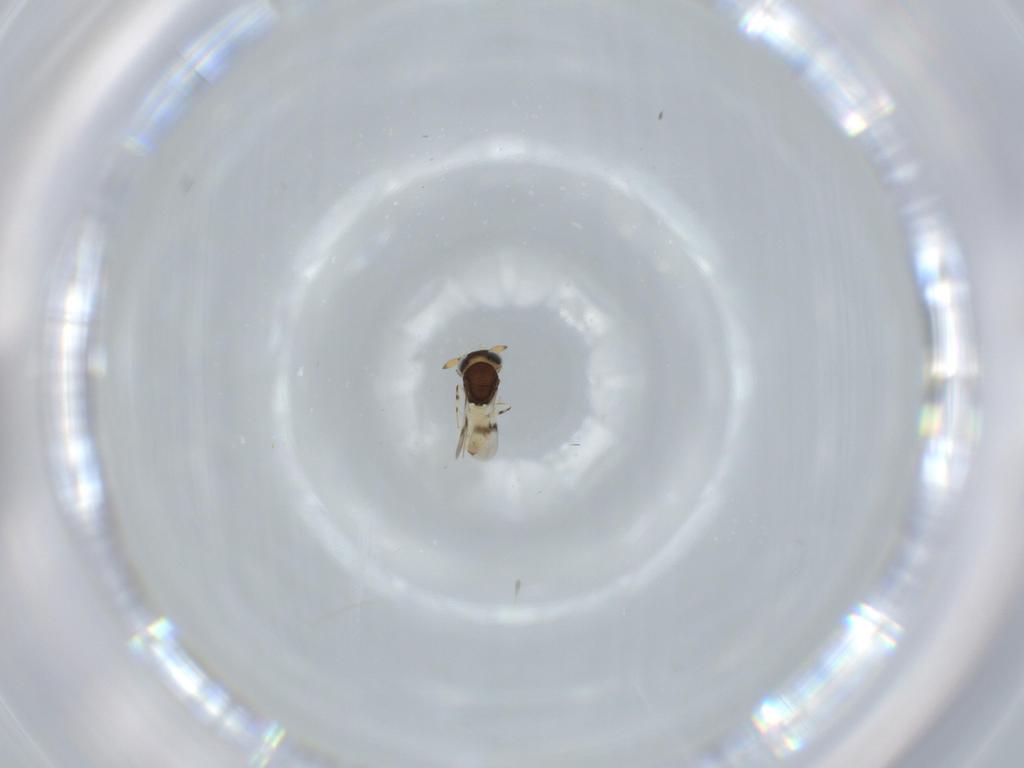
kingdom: Animalia
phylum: Arthropoda
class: Insecta
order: Hymenoptera
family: Scelionidae
